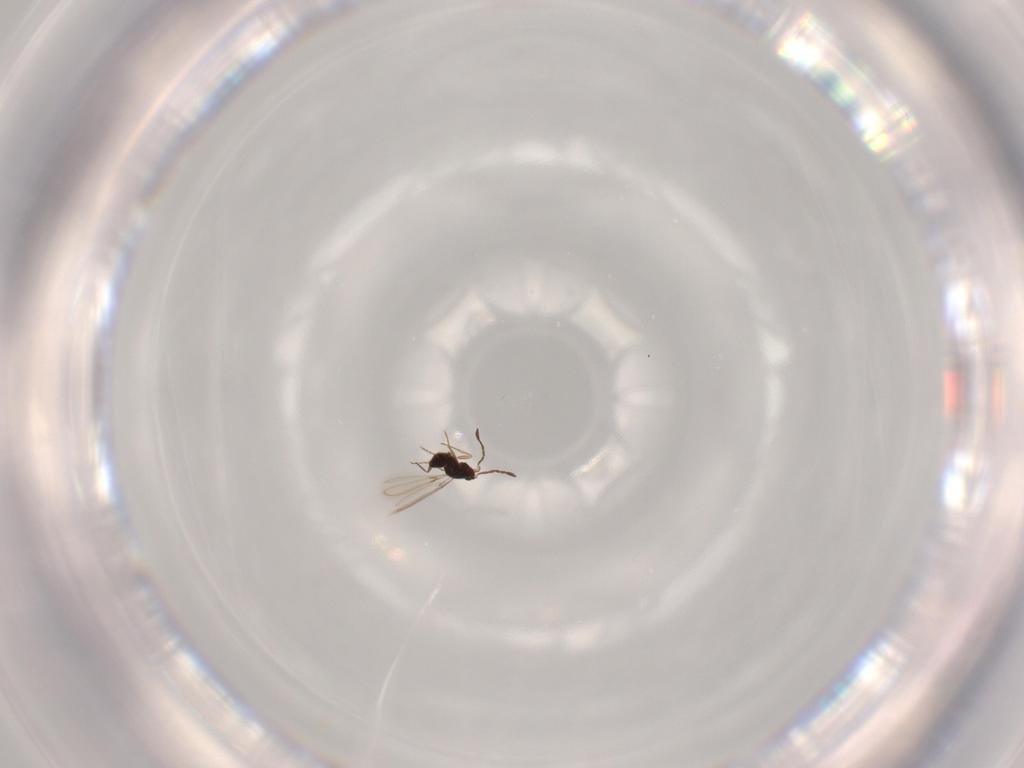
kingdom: Animalia
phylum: Arthropoda
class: Insecta
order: Hymenoptera
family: Mymaridae
